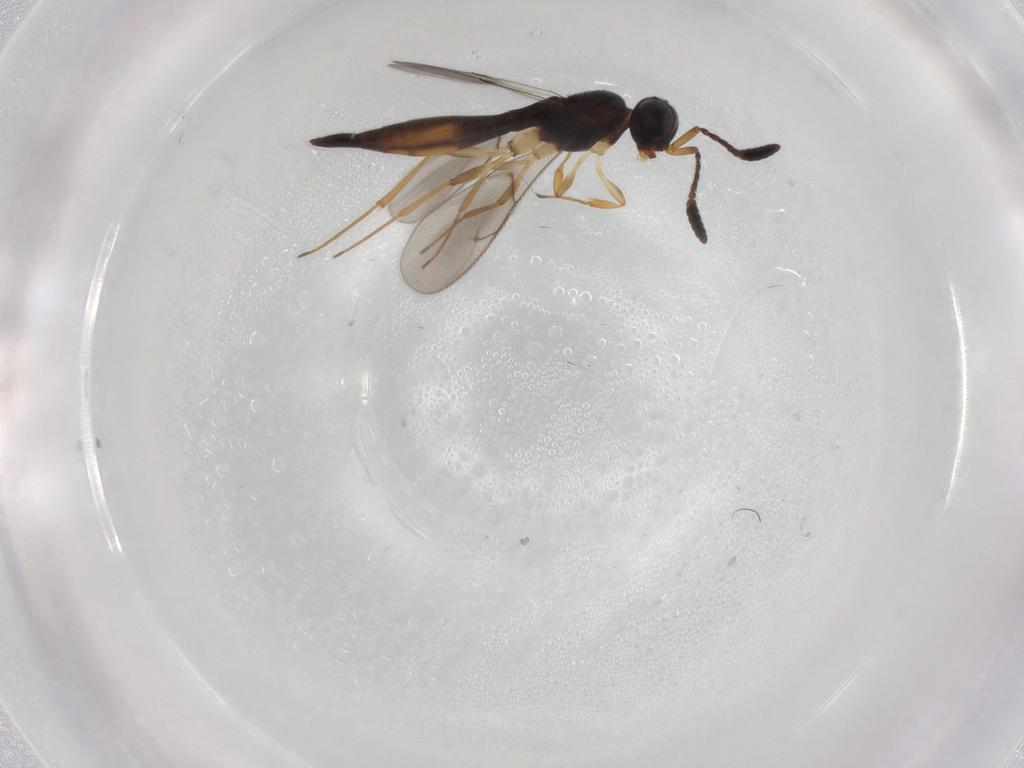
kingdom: Animalia
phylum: Arthropoda
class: Insecta
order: Hymenoptera
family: Scelionidae
